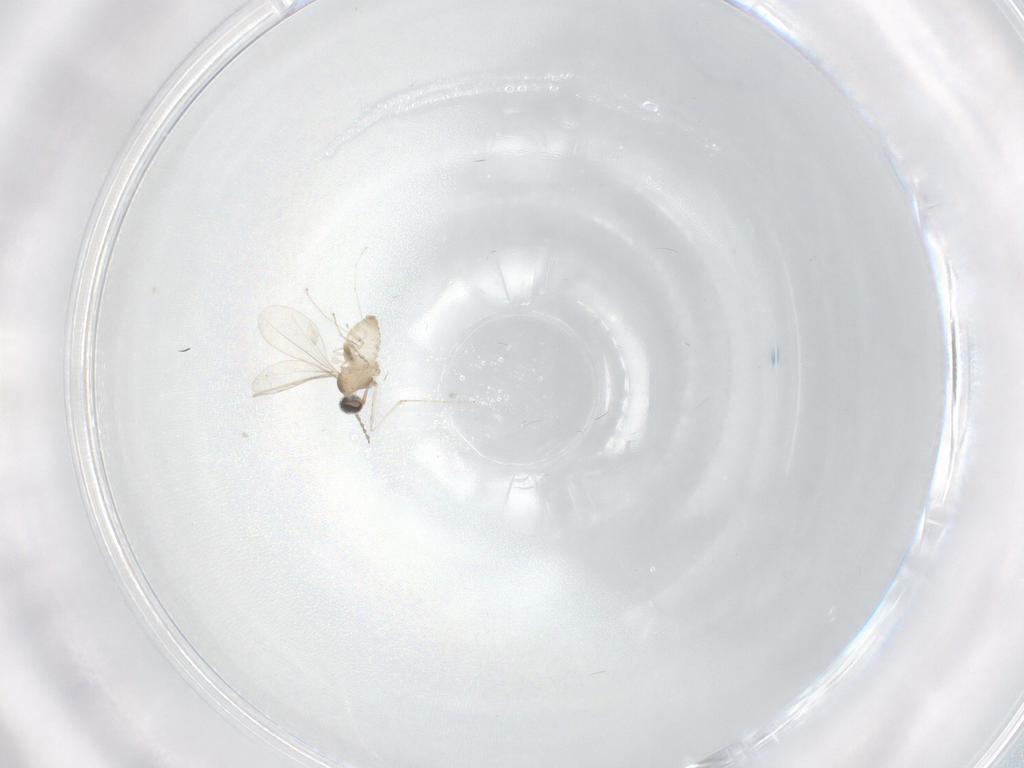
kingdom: Animalia
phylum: Arthropoda
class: Insecta
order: Diptera
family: Cecidomyiidae
